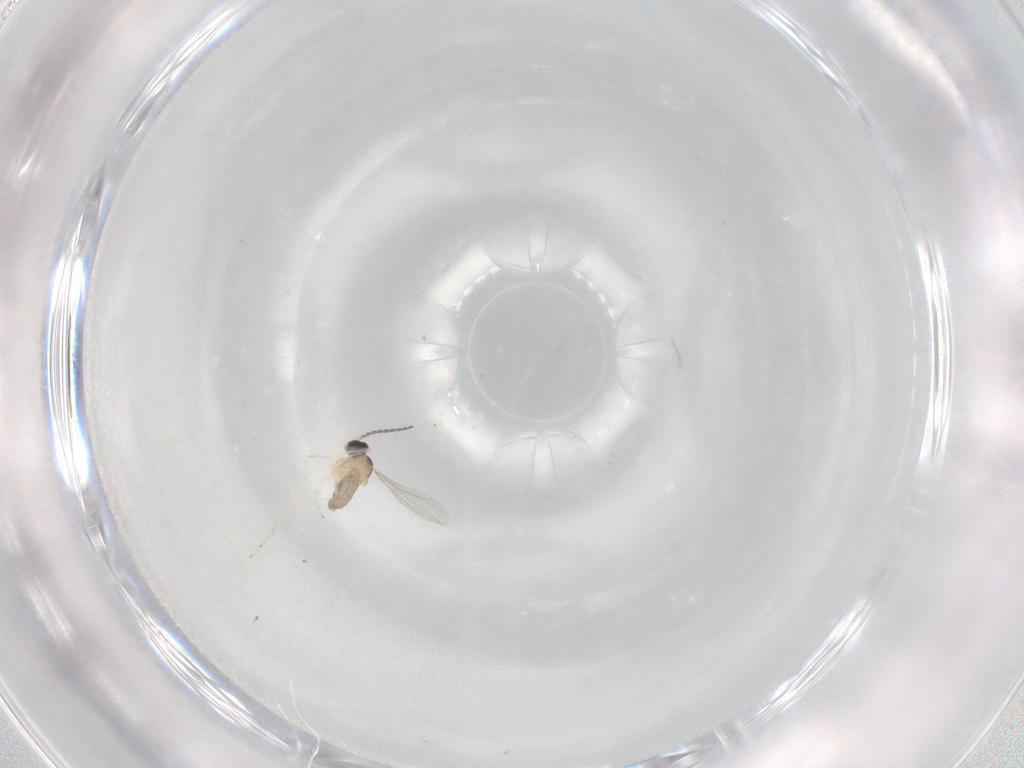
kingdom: Animalia
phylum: Arthropoda
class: Insecta
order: Diptera
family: Cecidomyiidae
